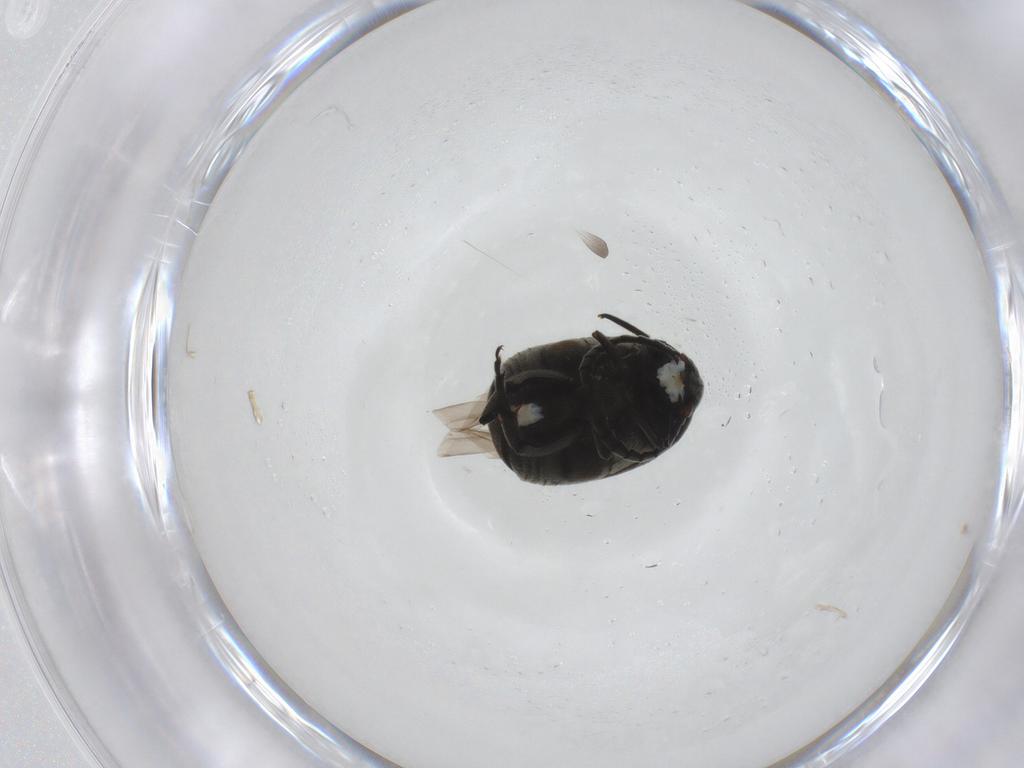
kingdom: Animalia
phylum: Arthropoda
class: Insecta
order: Coleoptera
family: Chrysomelidae
